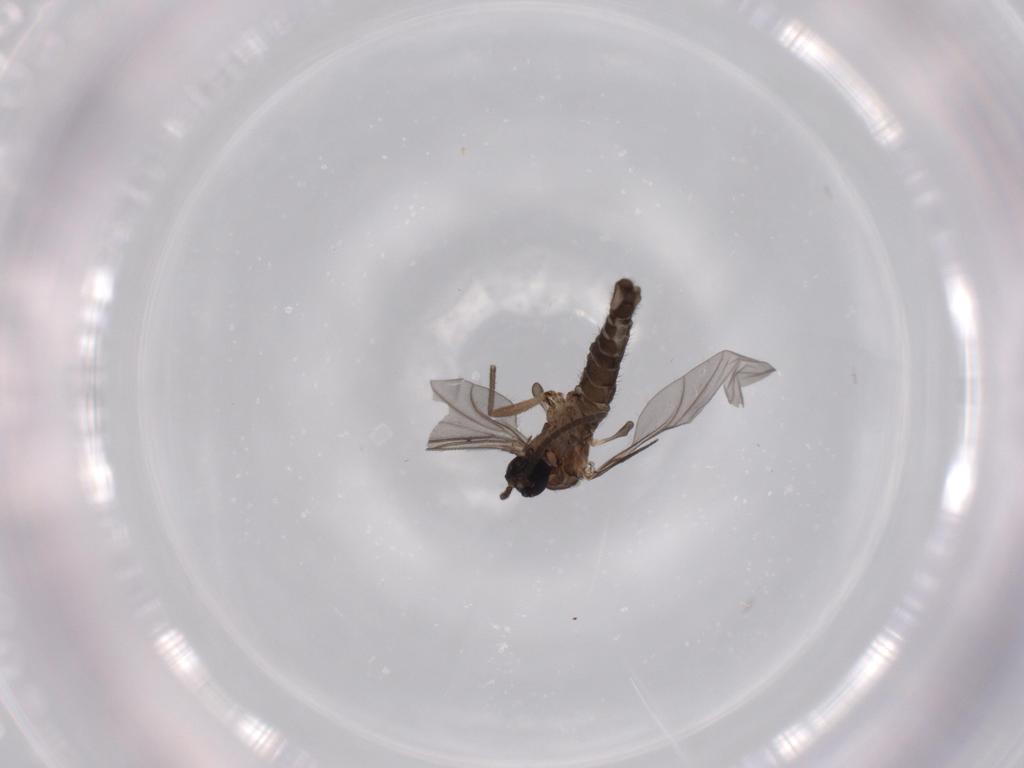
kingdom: Animalia
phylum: Arthropoda
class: Insecta
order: Diptera
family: Sciaridae
